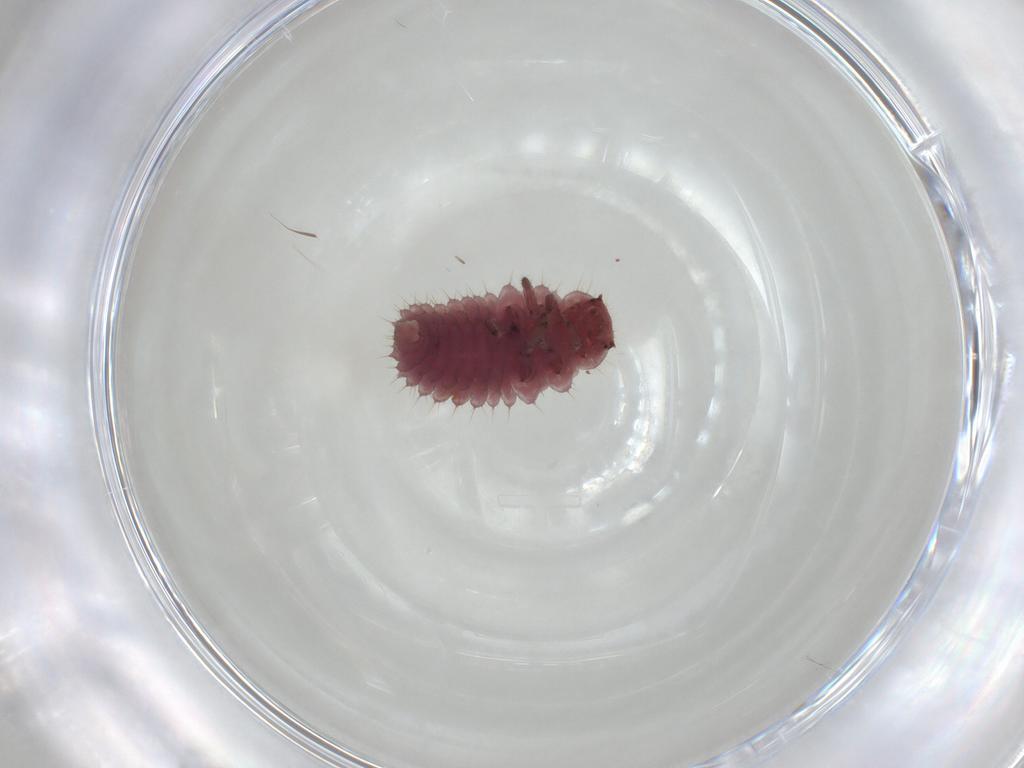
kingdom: Animalia
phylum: Arthropoda
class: Insecta
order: Coleoptera
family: Coccinellidae
